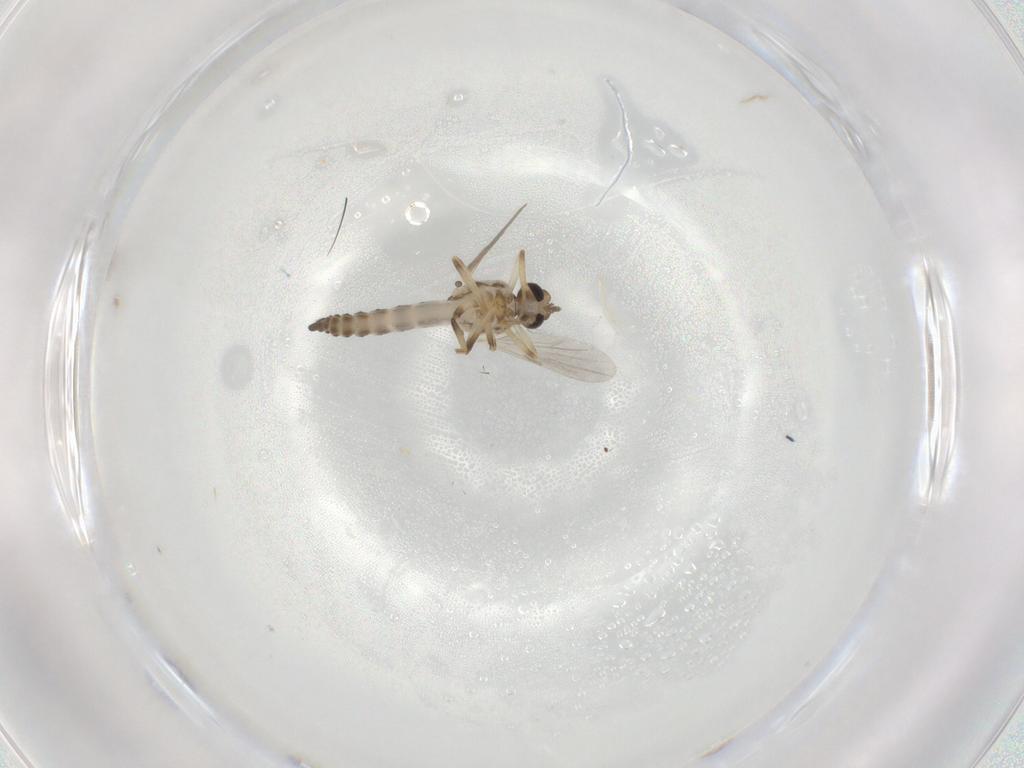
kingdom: Animalia
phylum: Arthropoda
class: Insecta
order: Diptera
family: Ceratopogonidae
